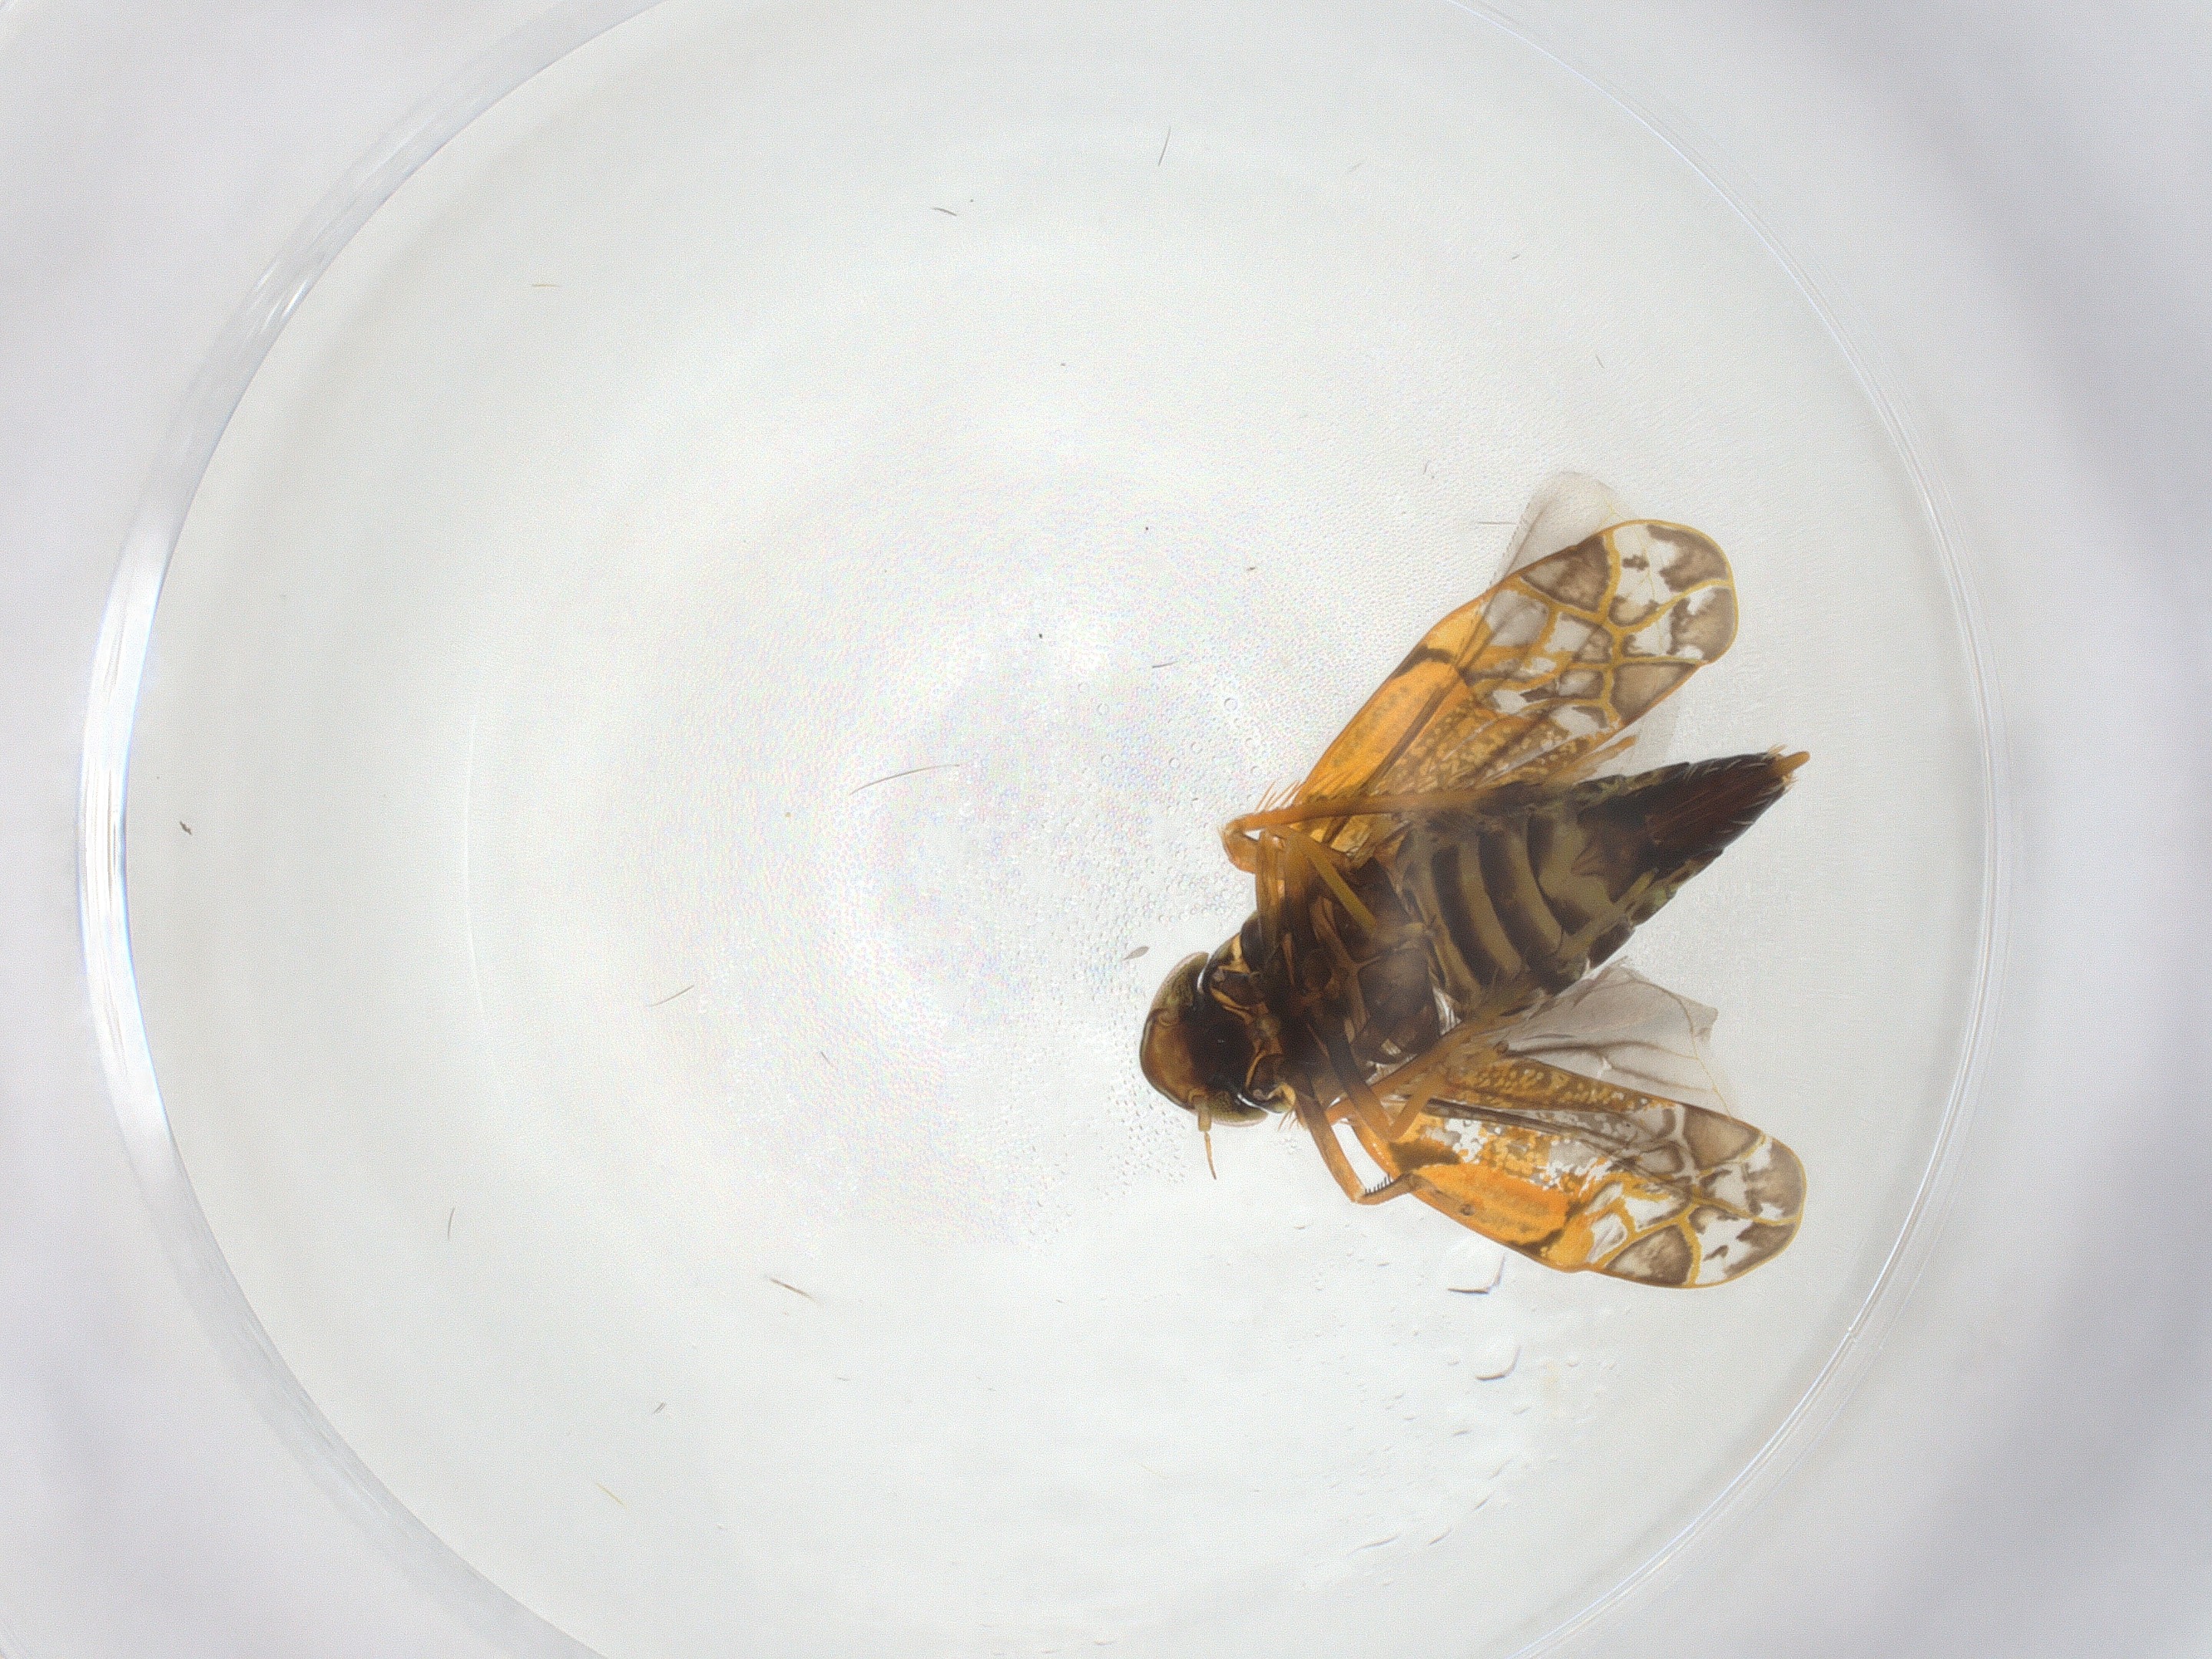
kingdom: Animalia
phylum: Arthropoda
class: Insecta
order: Hemiptera
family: Cicadellidae
